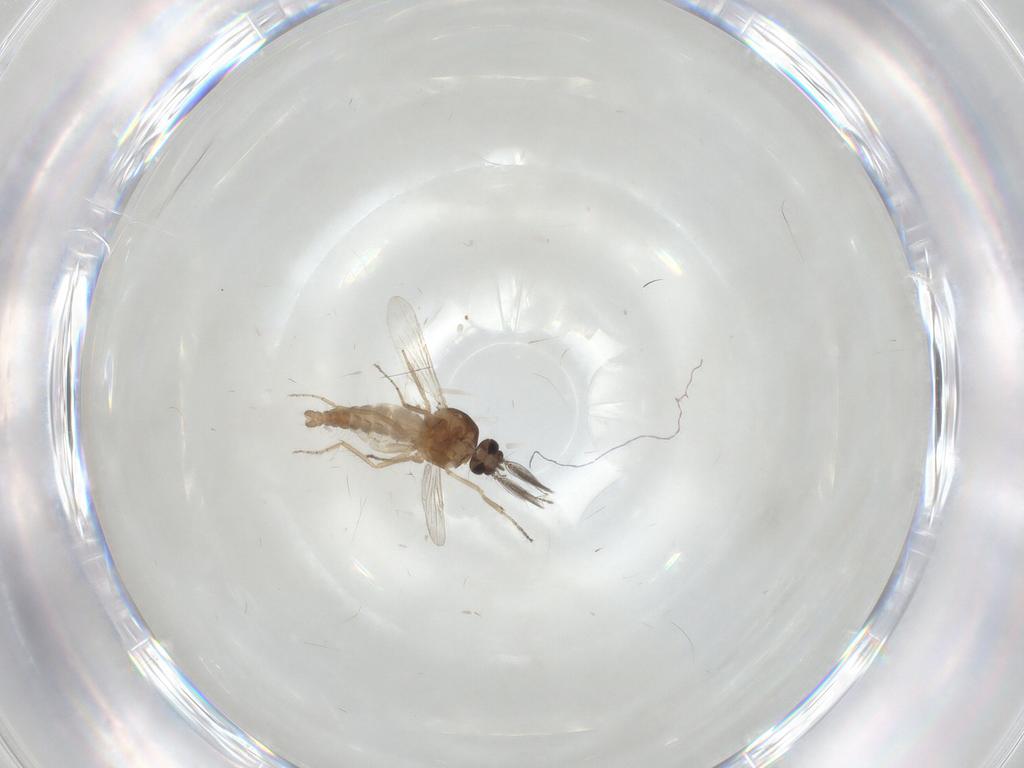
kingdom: Animalia
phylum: Arthropoda
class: Insecta
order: Diptera
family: Ceratopogonidae
